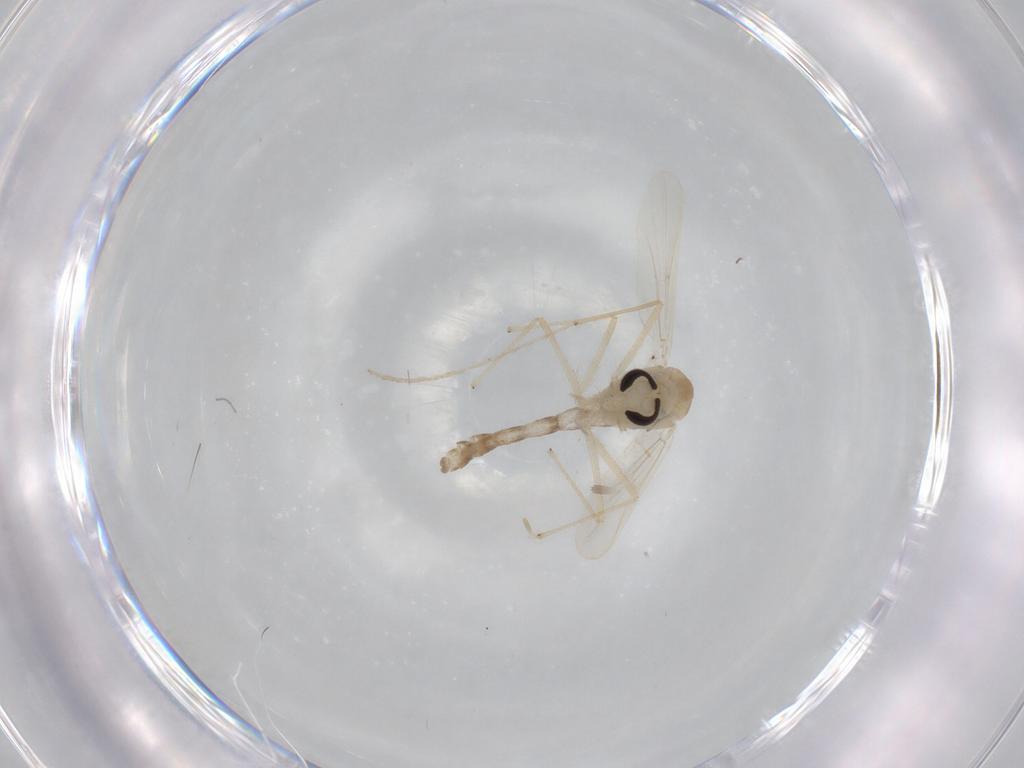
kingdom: Animalia
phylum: Arthropoda
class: Insecta
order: Diptera
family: Chironomidae
